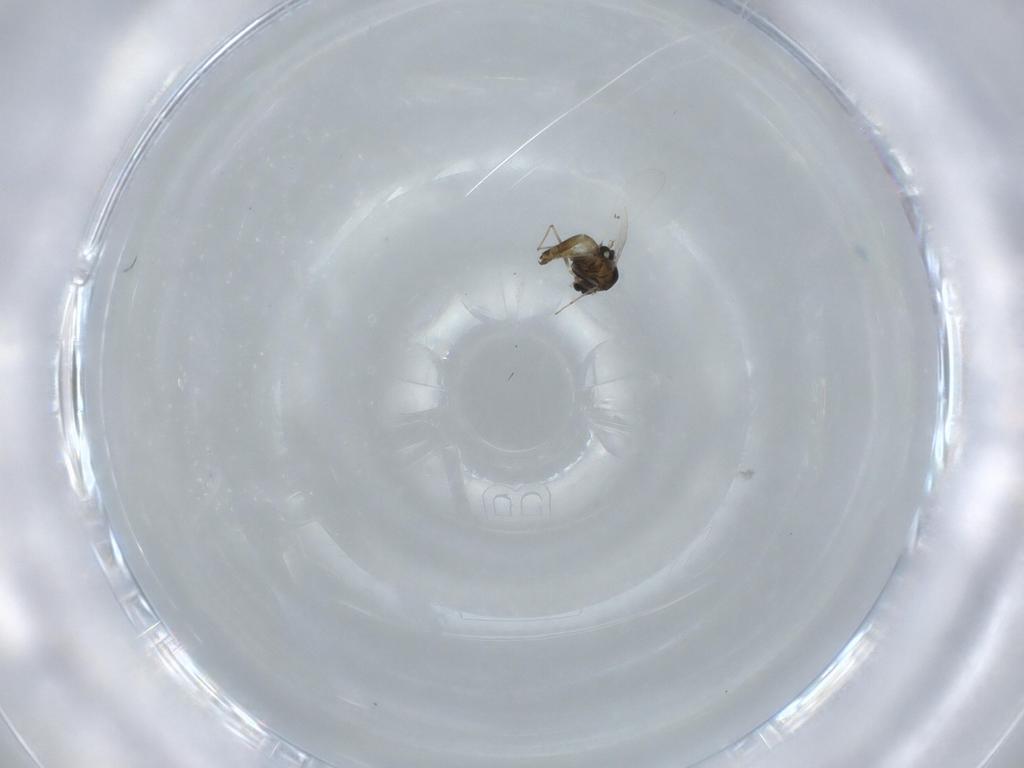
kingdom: Animalia
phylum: Arthropoda
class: Insecta
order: Diptera
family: Chironomidae
